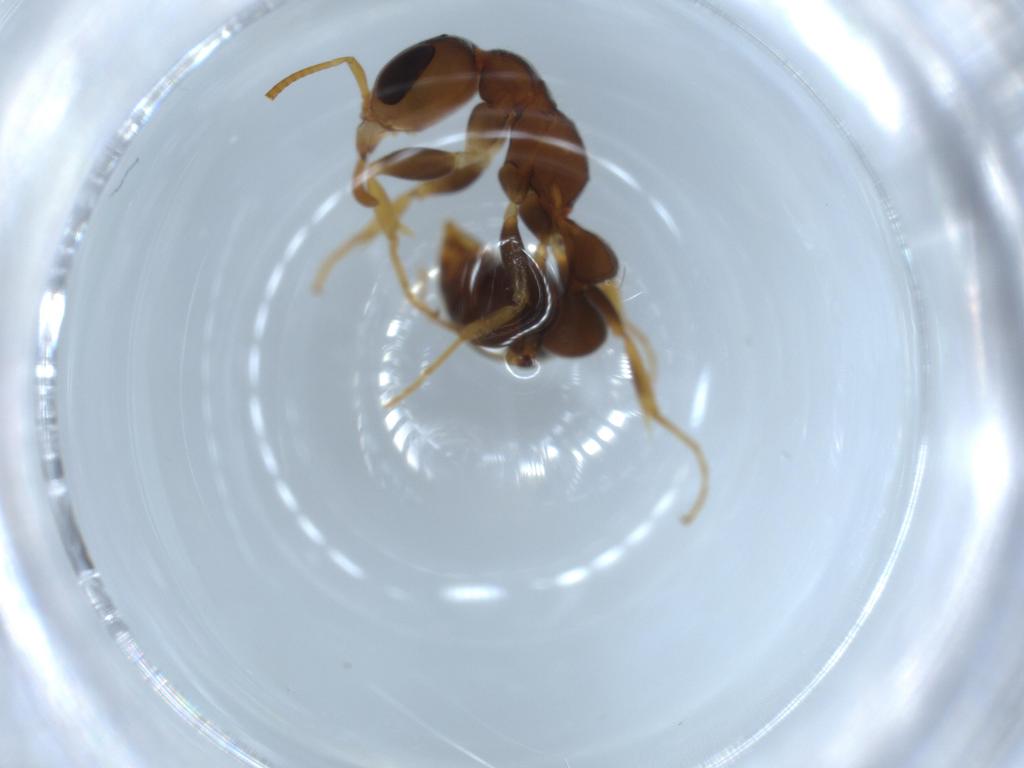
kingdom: Animalia
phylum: Arthropoda
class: Insecta
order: Hymenoptera
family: Formicidae
